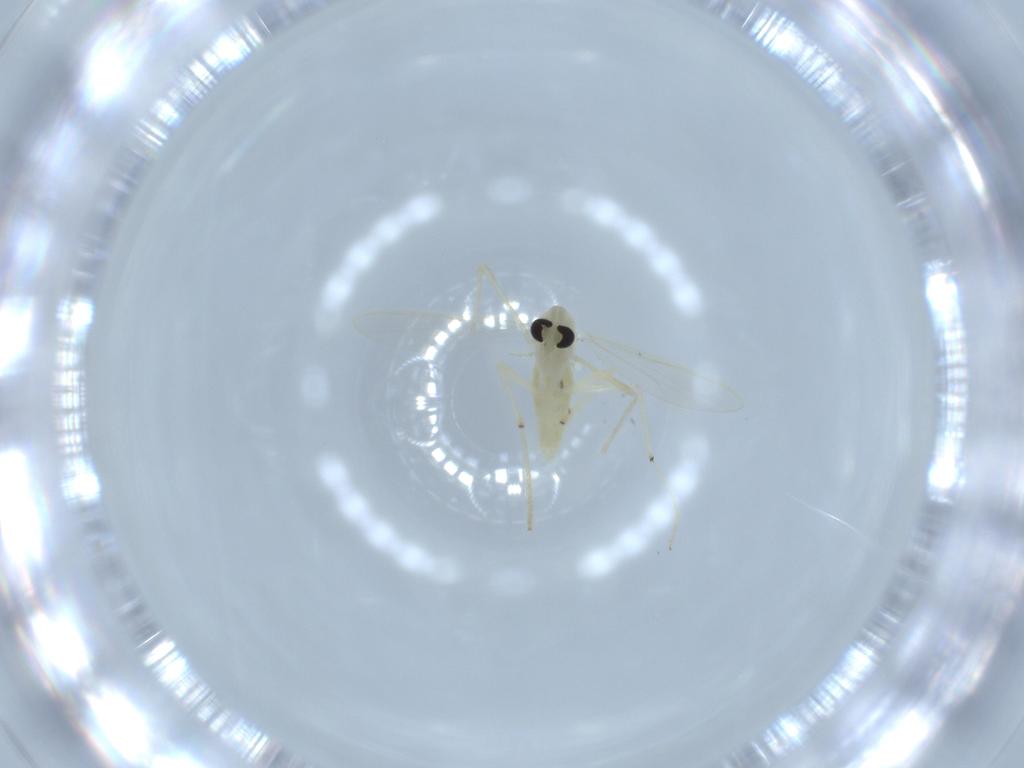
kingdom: Animalia
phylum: Arthropoda
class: Insecta
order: Diptera
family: Chironomidae
